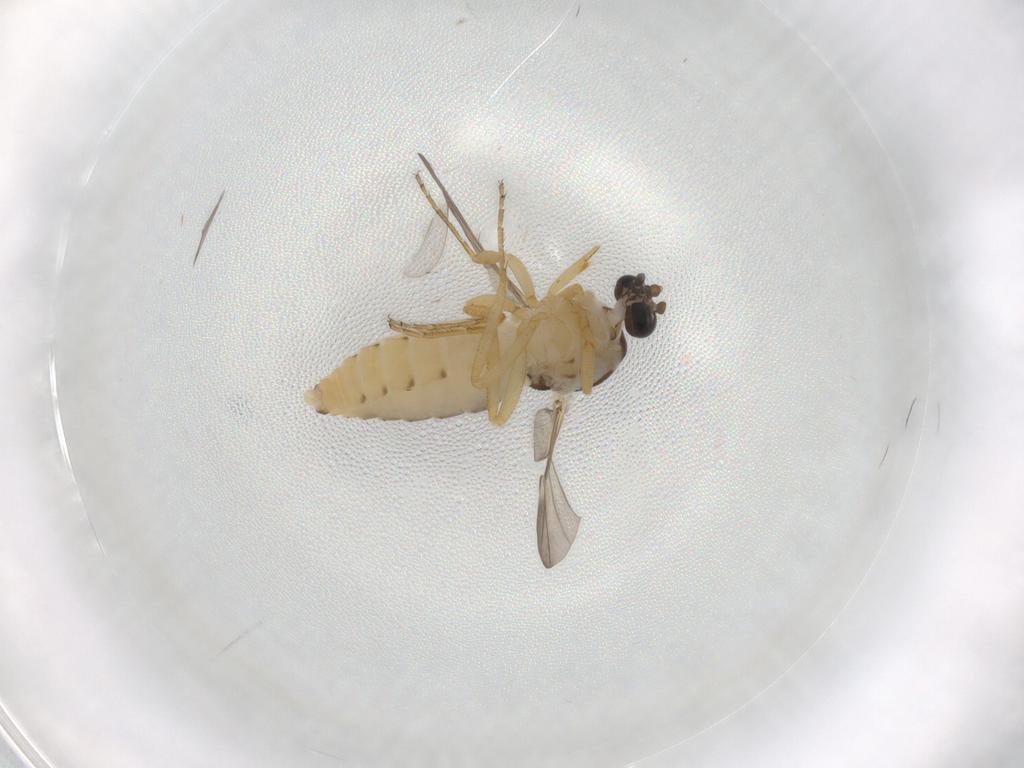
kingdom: Animalia
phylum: Arthropoda
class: Insecta
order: Diptera
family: Ceratopogonidae
